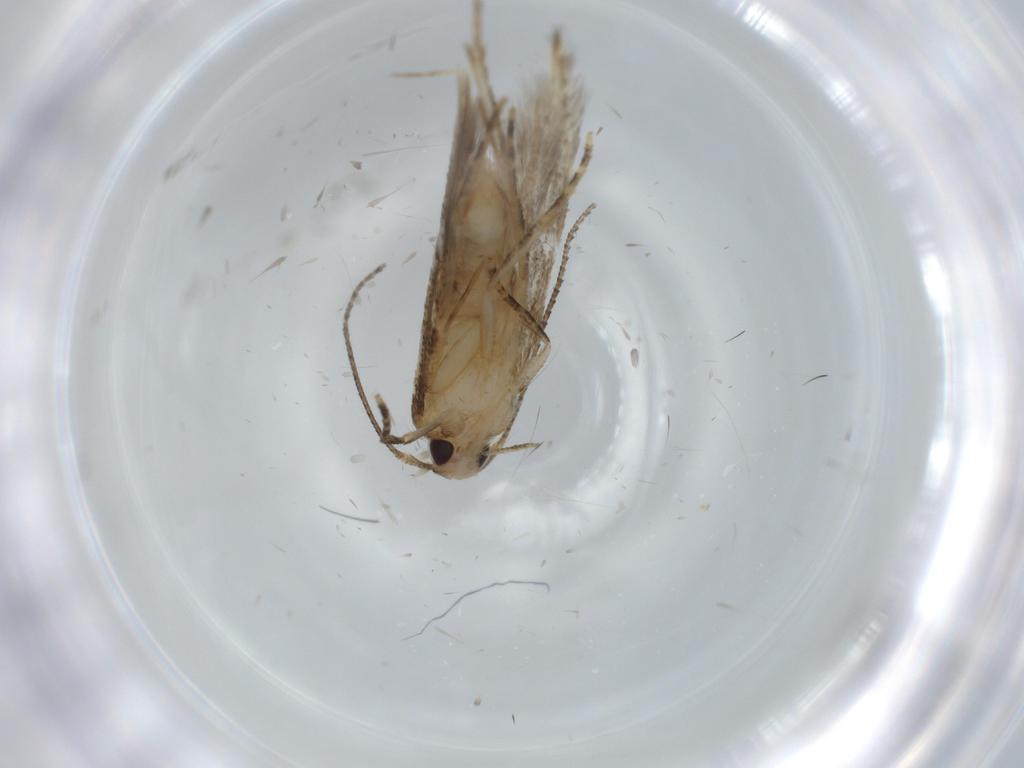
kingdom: Animalia
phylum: Arthropoda
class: Insecta
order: Lepidoptera
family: Stathmopodidae
